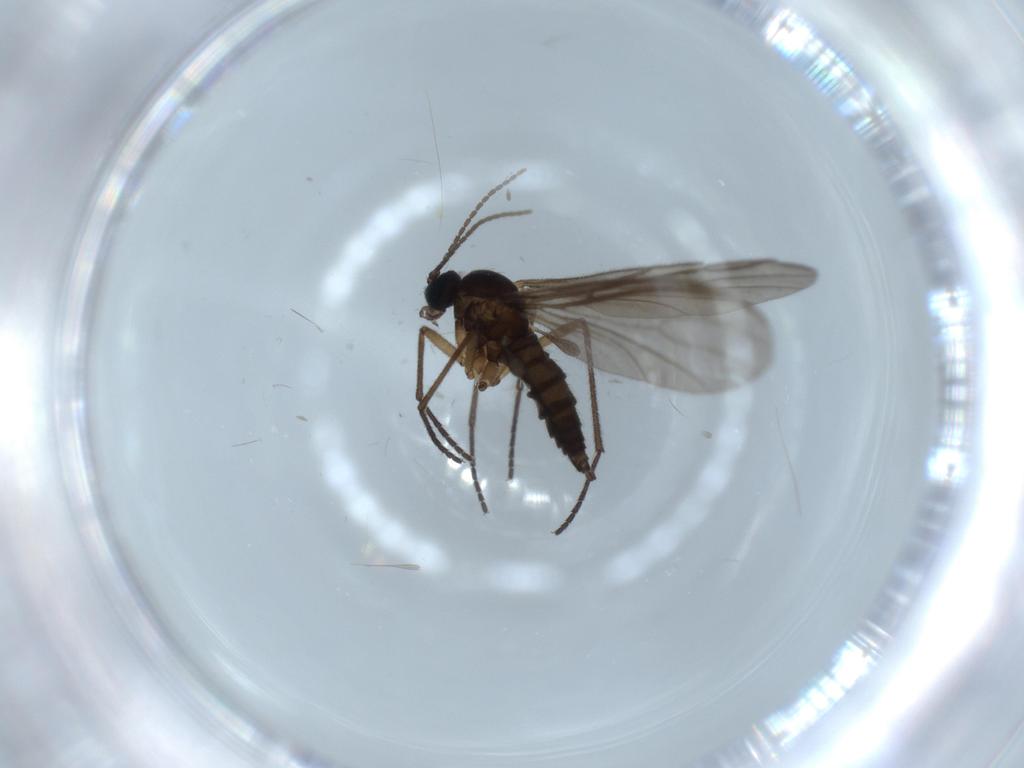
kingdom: Animalia
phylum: Arthropoda
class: Insecta
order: Diptera
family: Sciaridae
